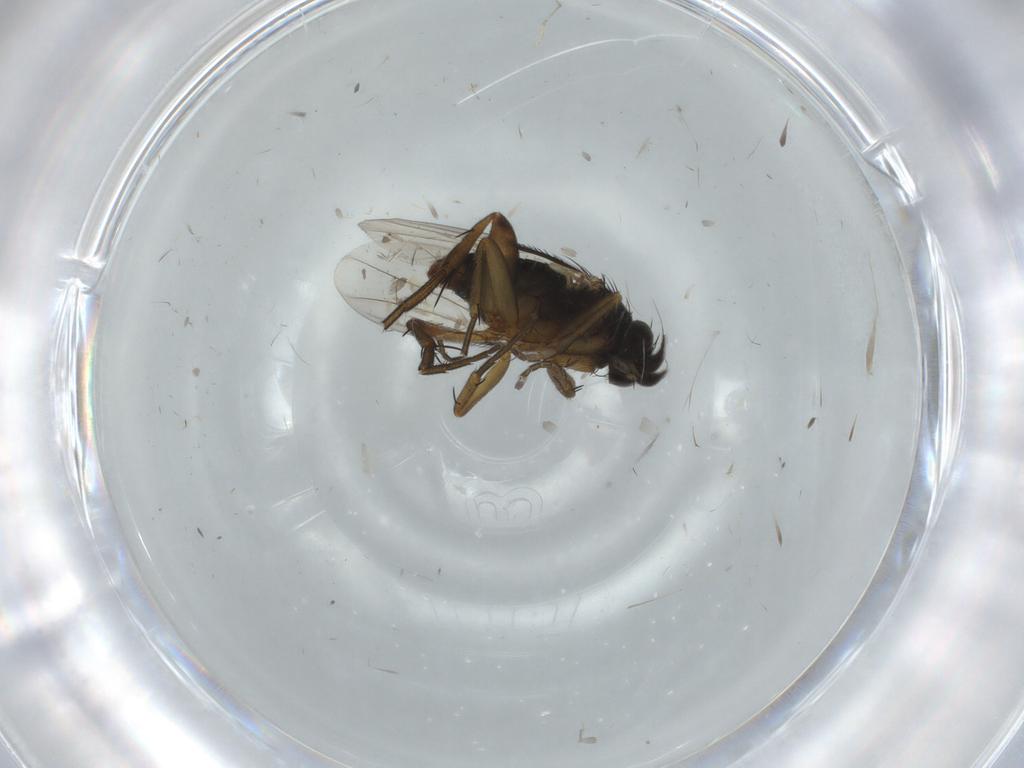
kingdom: Animalia
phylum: Arthropoda
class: Insecta
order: Diptera
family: Phoridae
